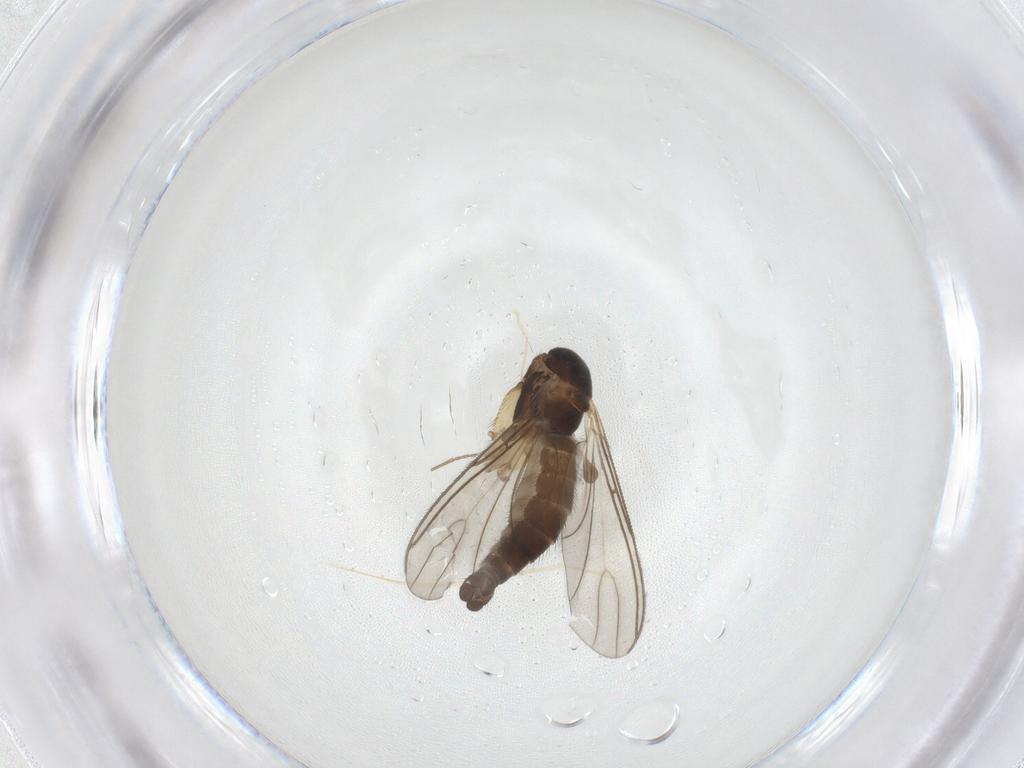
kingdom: Animalia
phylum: Arthropoda
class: Insecta
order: Diptera
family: Sciaridae
